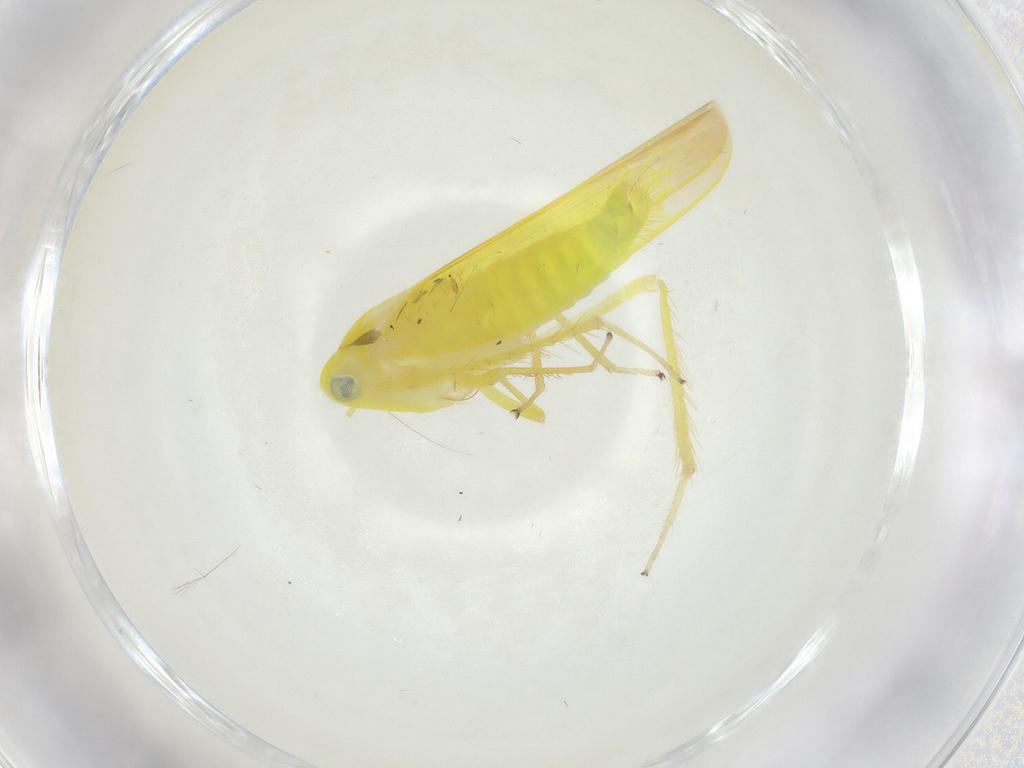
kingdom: Animalia
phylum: Arthropoda
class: Insecta
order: Hemiptera
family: Cicadellidae
